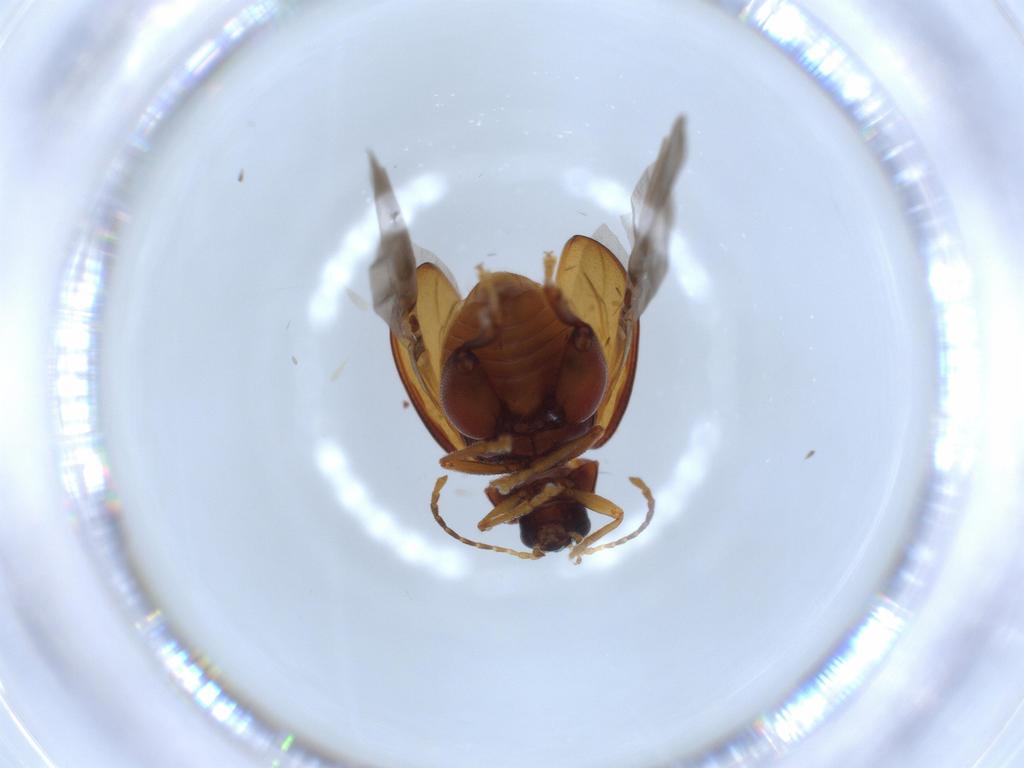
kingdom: Animalia
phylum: Arthropoda
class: Insecta
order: Coleoptera
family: Chrysomelidae
